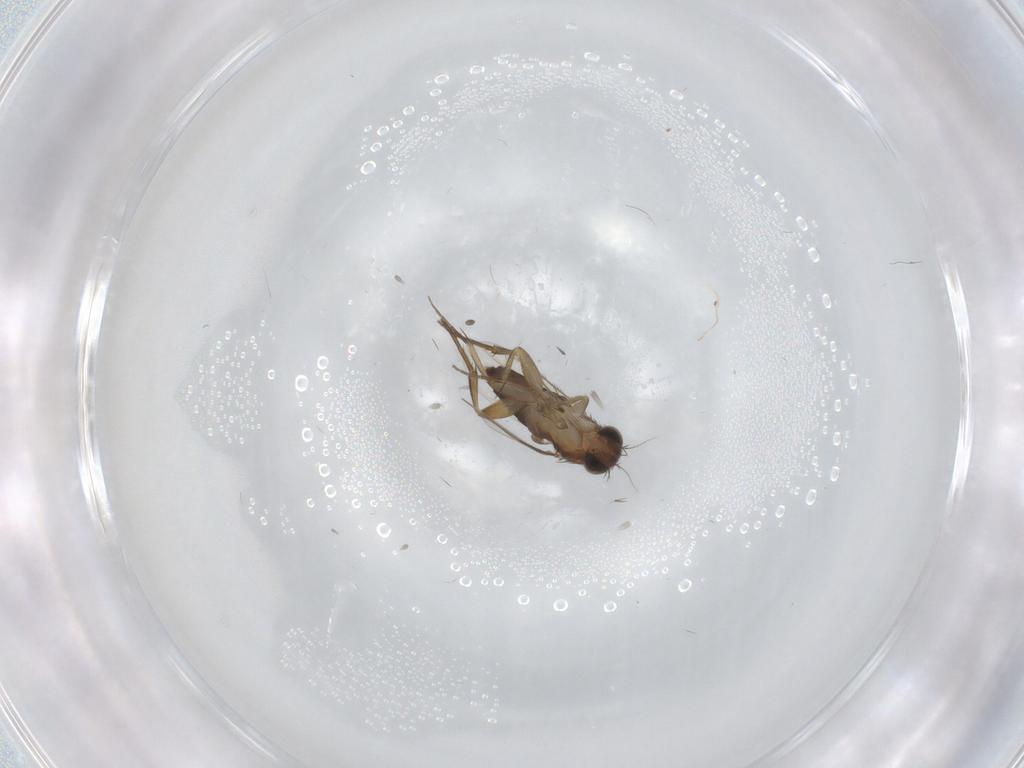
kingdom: Animalia
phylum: Arthropoda
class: Insecta
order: Diptera
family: Phoridae
